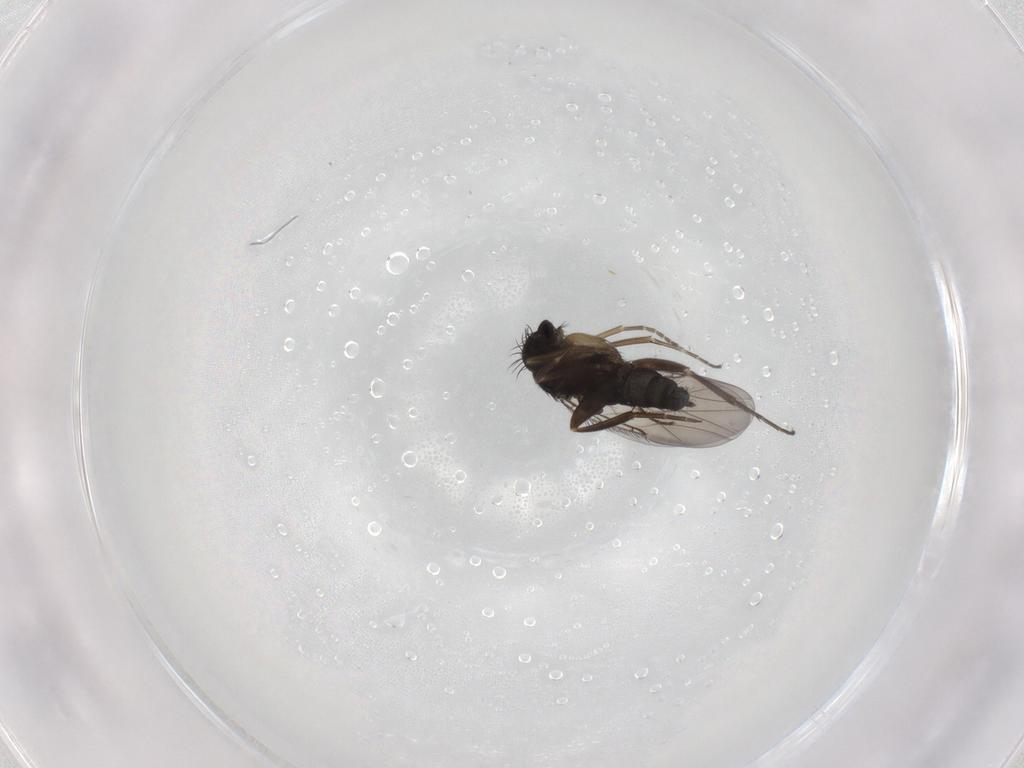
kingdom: Animalia
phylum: Arthropoda
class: Insecta
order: Diptera
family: Phoridae
